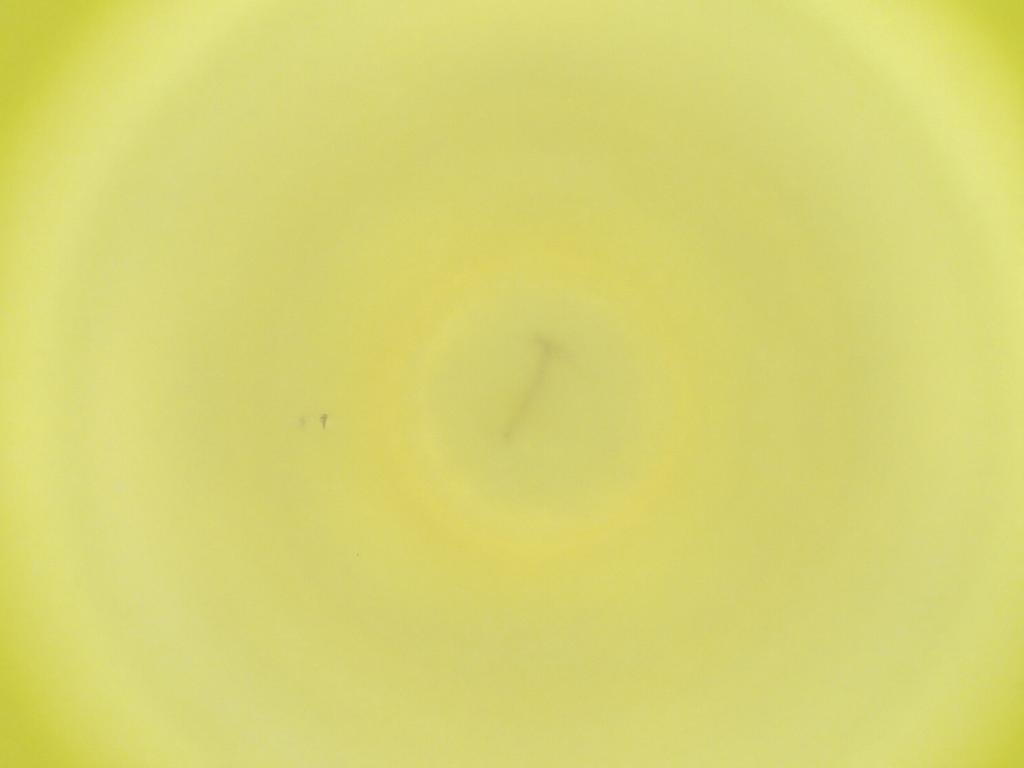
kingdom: Animalia
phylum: Arthropoda
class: Insecta
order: Diptera
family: Cecidomyiidae
